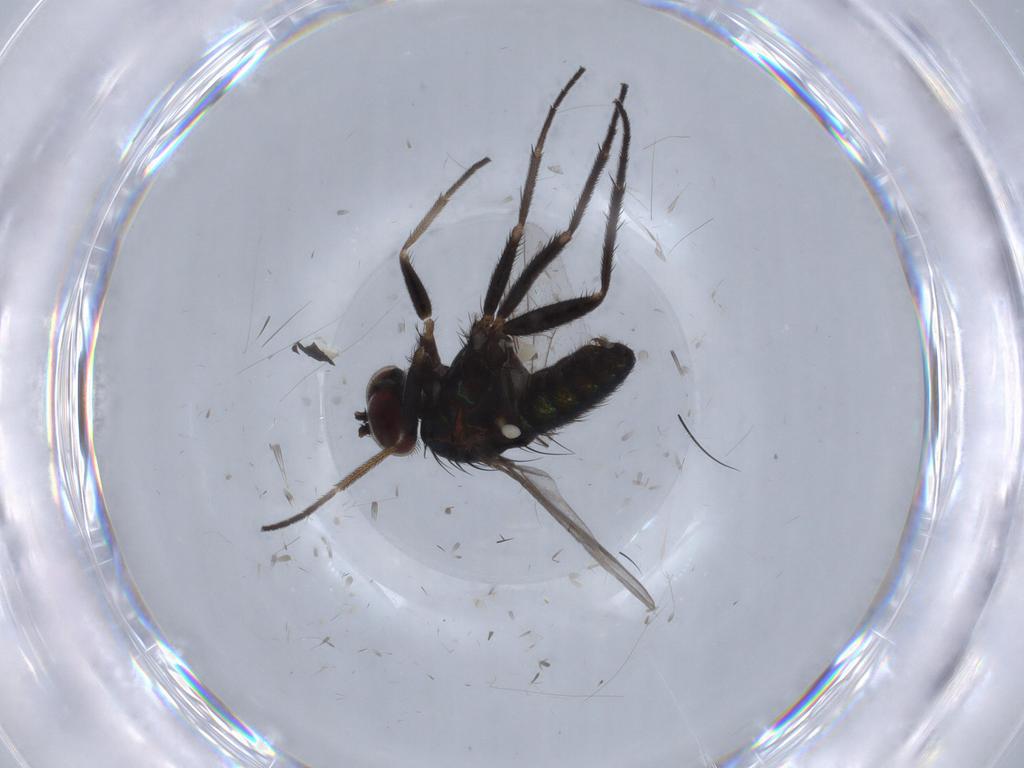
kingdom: Animalia
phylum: Arthropoda
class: Insecta
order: Diptera
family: Dolichopodidae
